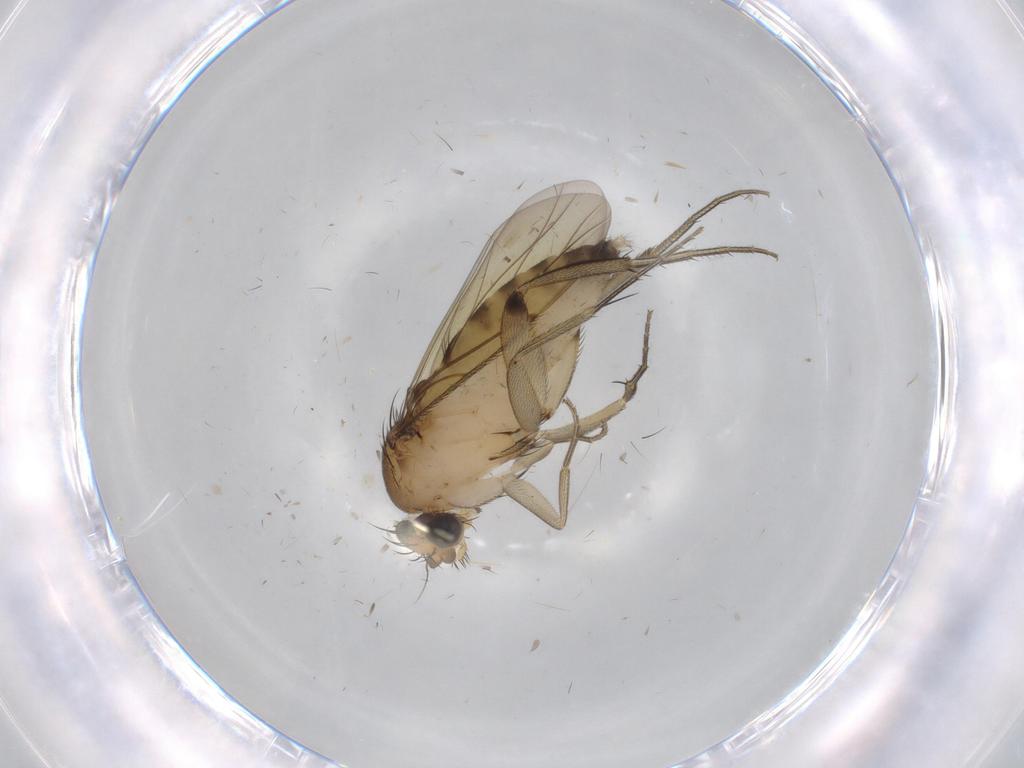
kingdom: Animalia
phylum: Arthropoda
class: Insecta
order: Diptera
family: Phoridae
